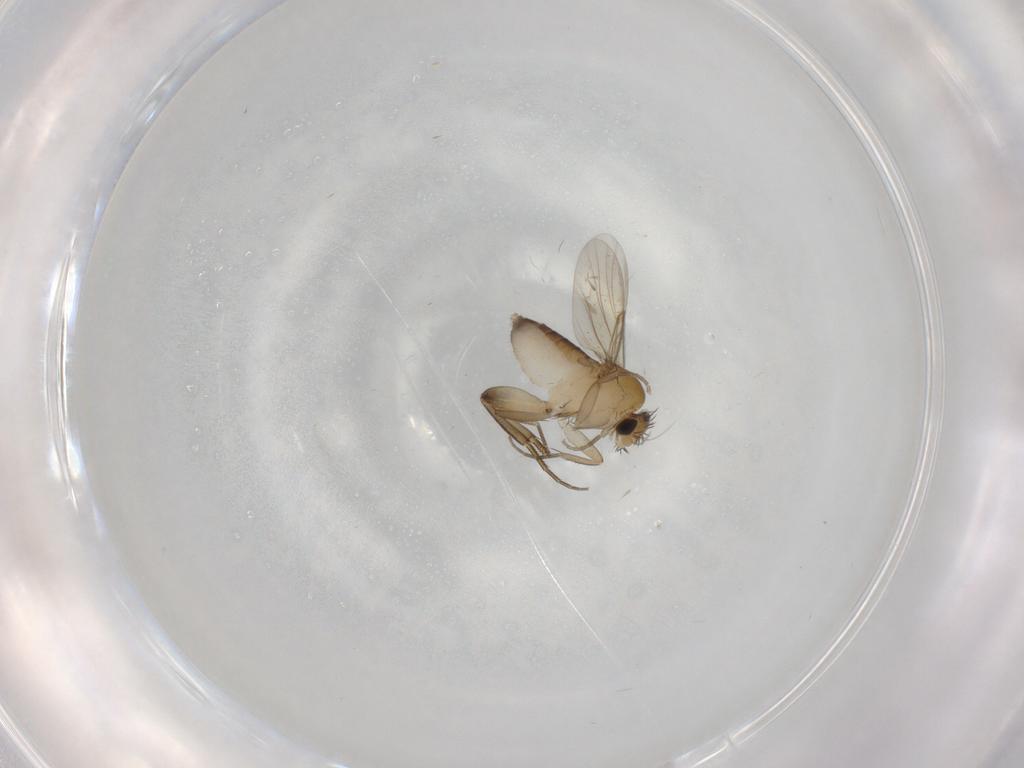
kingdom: Animalia
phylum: Arthropoda
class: Insecta
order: Diptera
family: Phoridae
